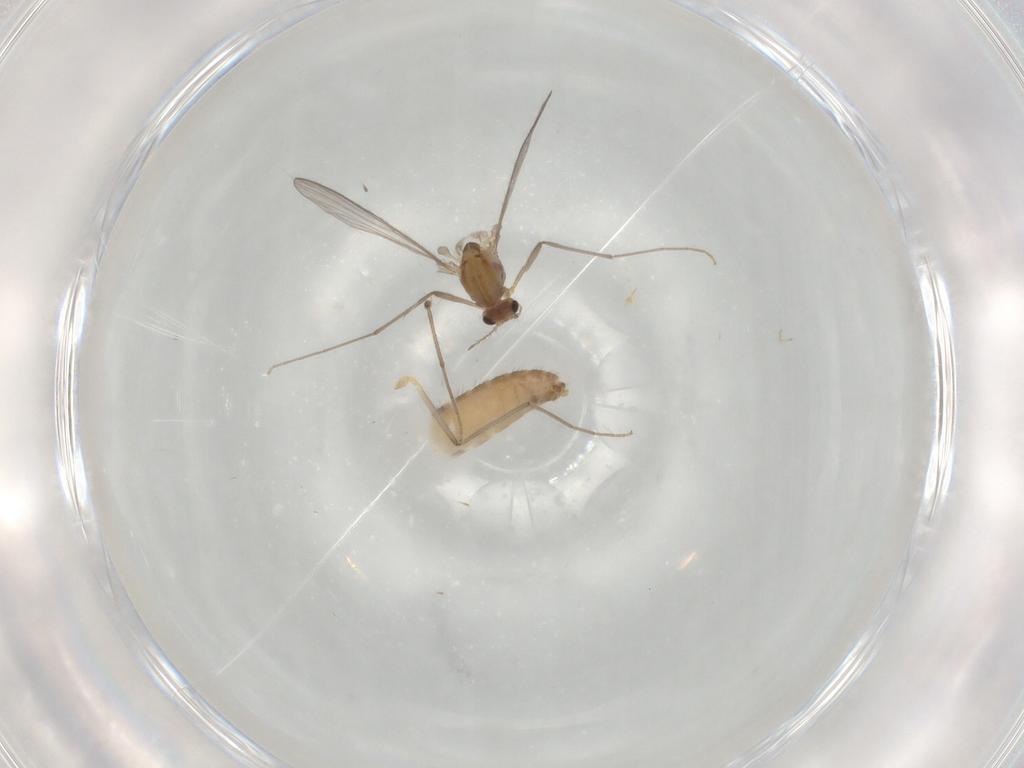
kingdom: Animalia
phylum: Arthropoda
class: Insecta
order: Diptera
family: Chironomidae
